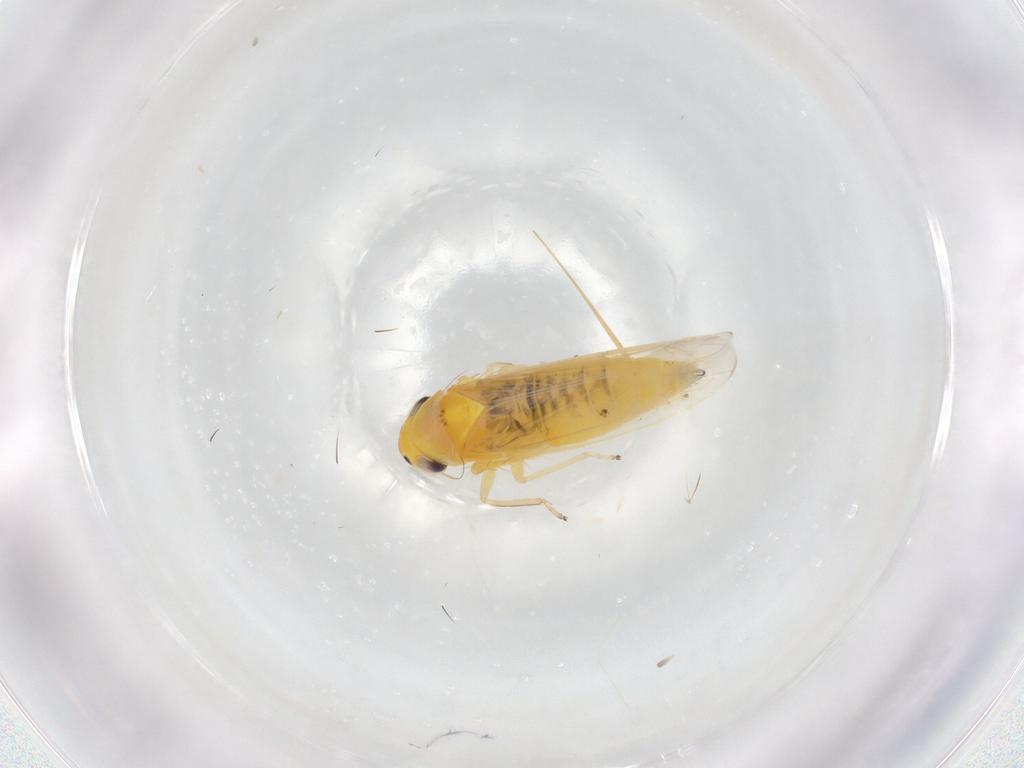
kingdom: Animalia
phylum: Arthropoda
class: Insecta
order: Hemiptera
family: Cicadellidae
